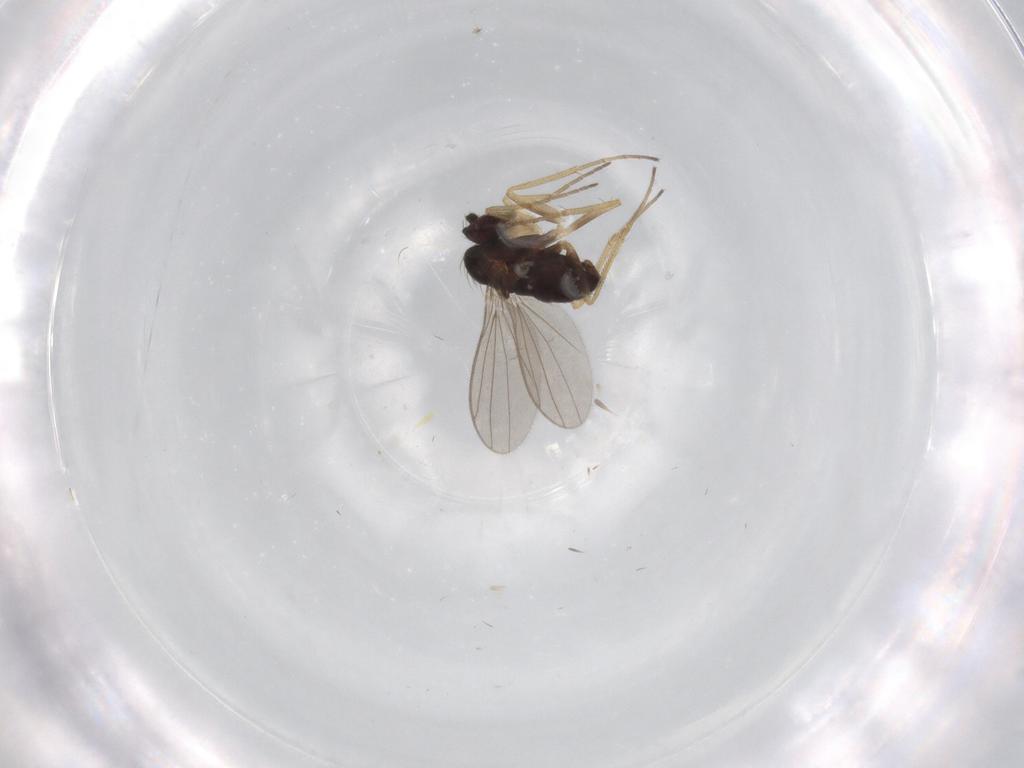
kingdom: Animalia
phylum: Arthropoda
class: Insecta
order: Diptera
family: Dolichopodidae
